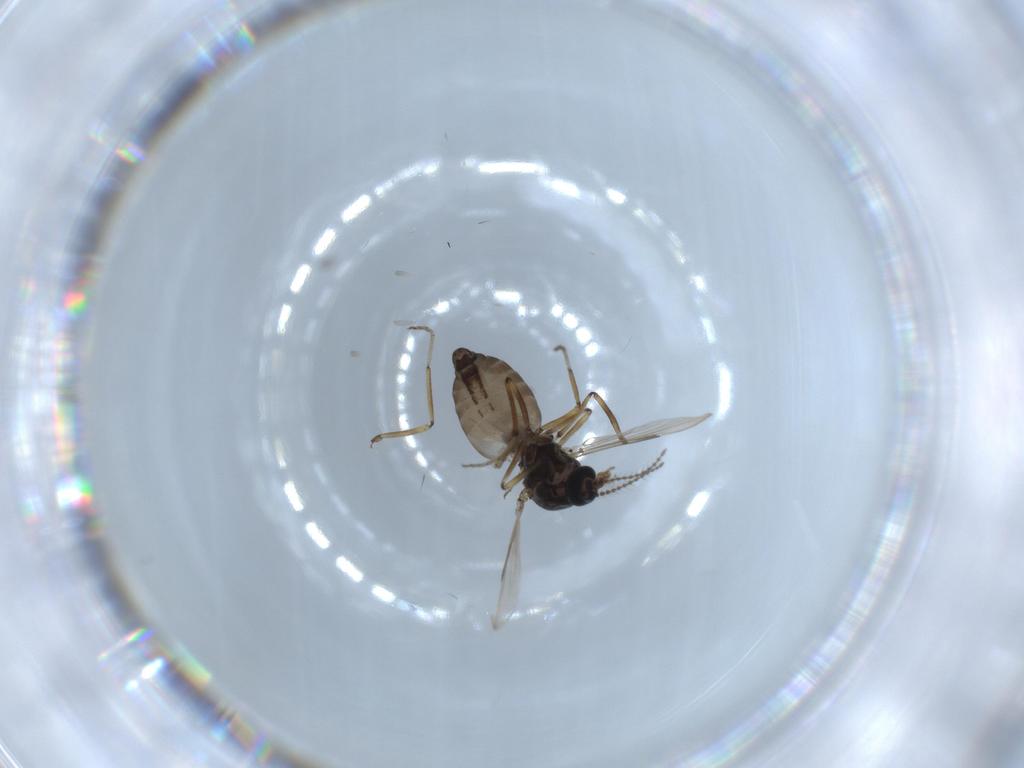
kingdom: Animalia
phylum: Arthropoda
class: Insecta
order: Diptera
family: Ceratopogonidae
